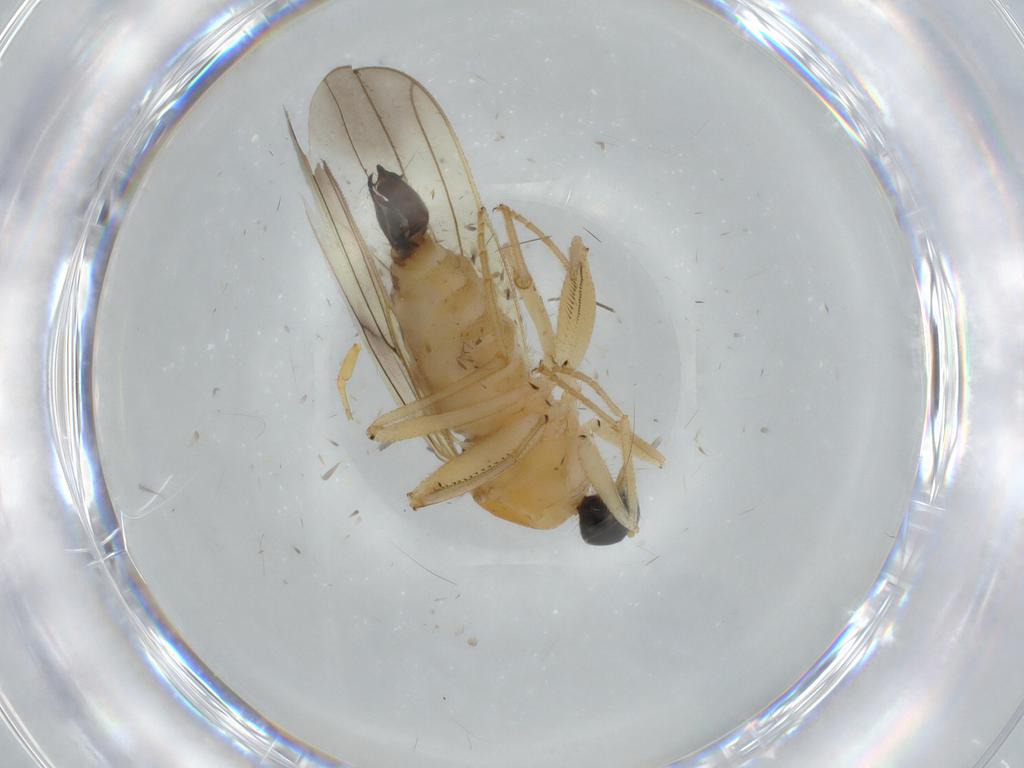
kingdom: Animalia
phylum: Arthropoda
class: Insecta
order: Diptera
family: Hybotidae
